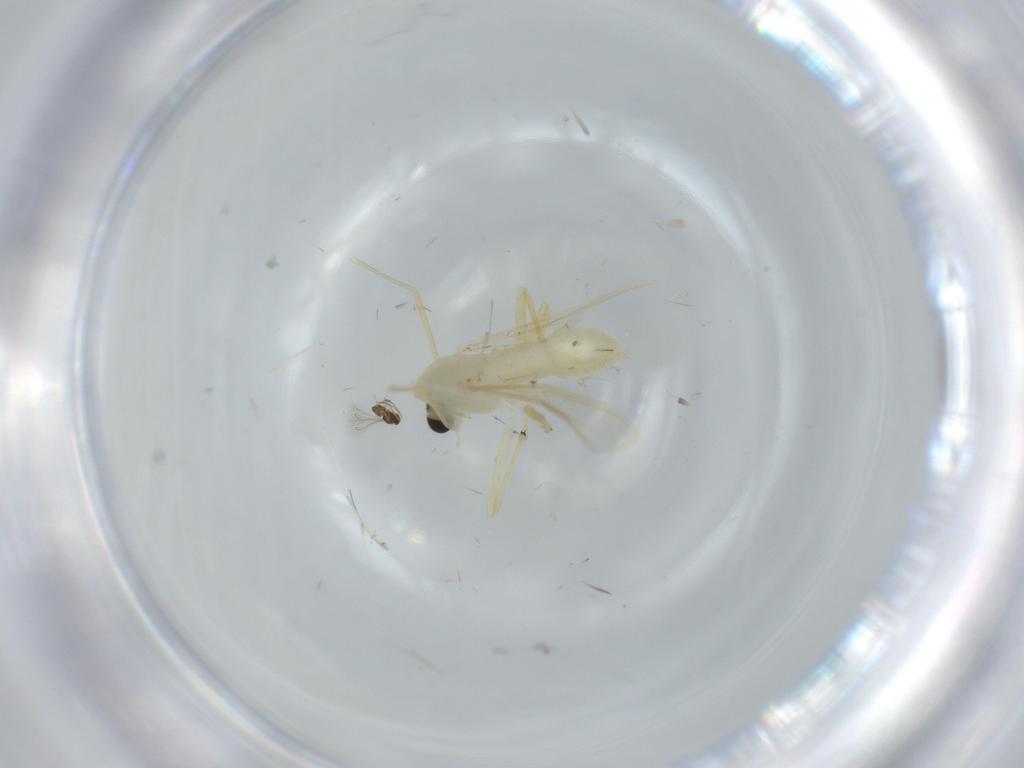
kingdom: Animalia
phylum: Arthropoda
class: Insecta
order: Diptera
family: Chironomidae
